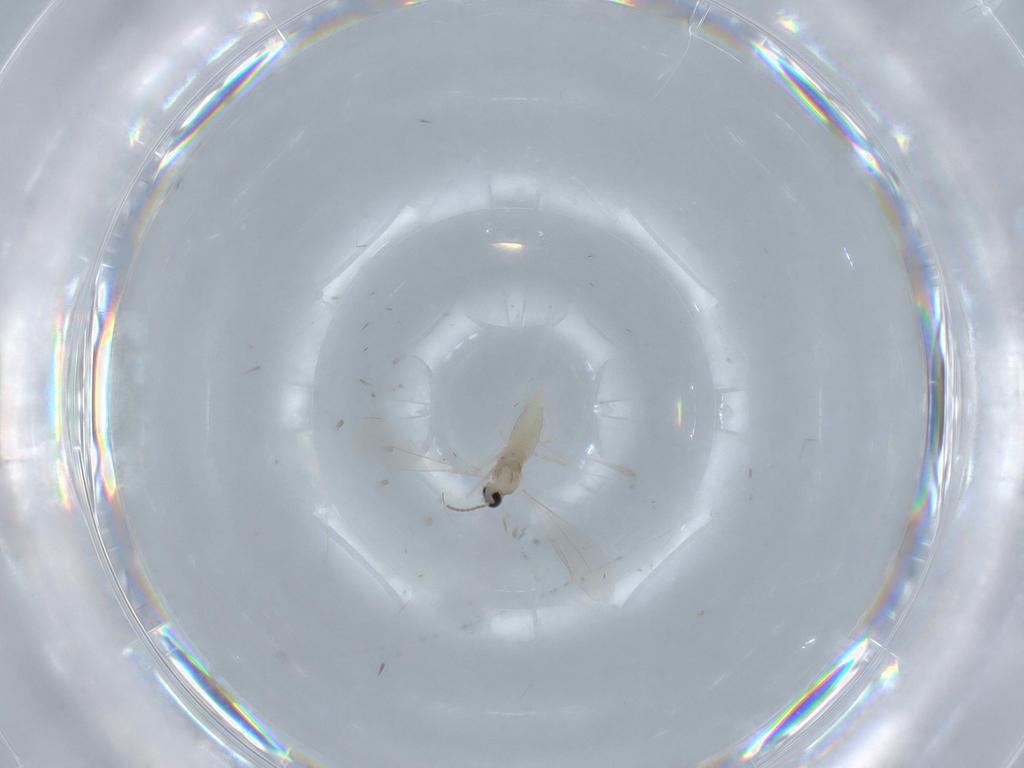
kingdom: Animalia
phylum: Arthropoda
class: Insecta
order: Diptera
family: Cecidomyiidae
